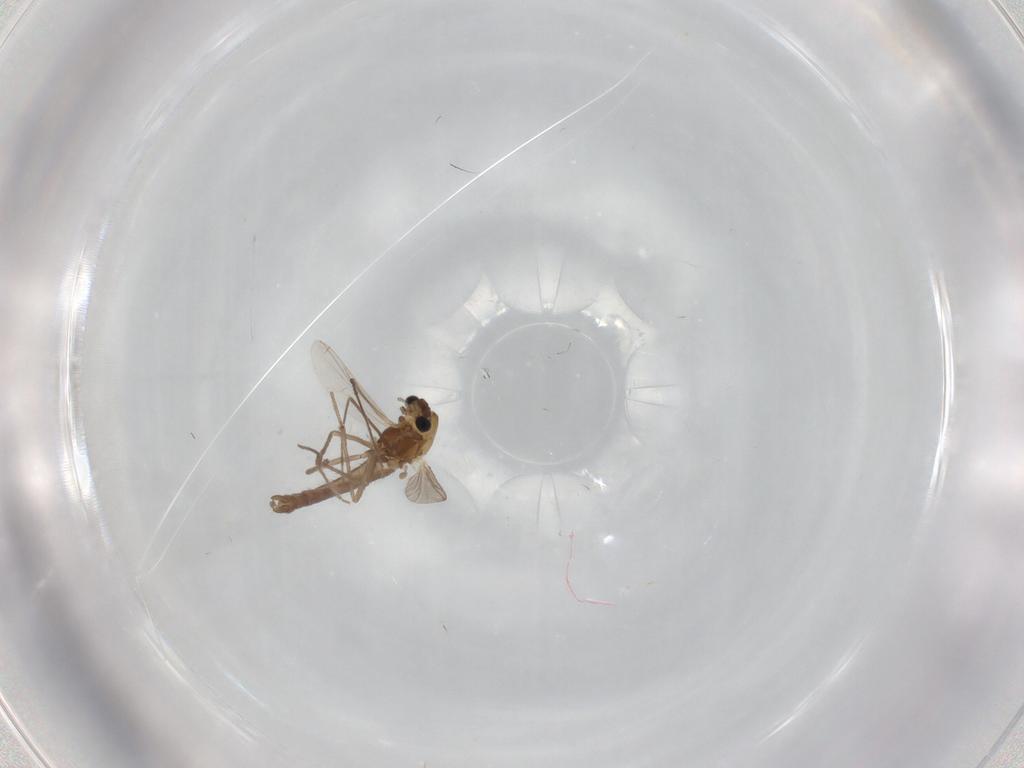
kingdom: Animalia
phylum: Arthropoda
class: Insecta
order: Diptera
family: Chironomidae
